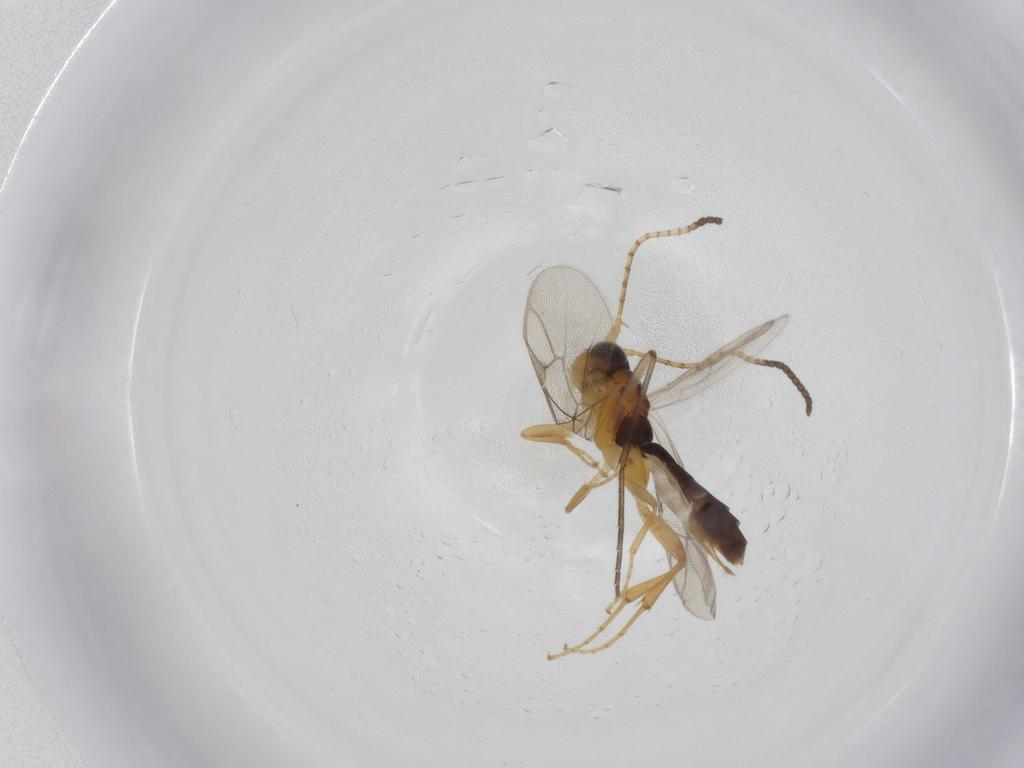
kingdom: Animalia
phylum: Arthropoda
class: Insecta
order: Hymenoptera
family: Ichneumonidae
